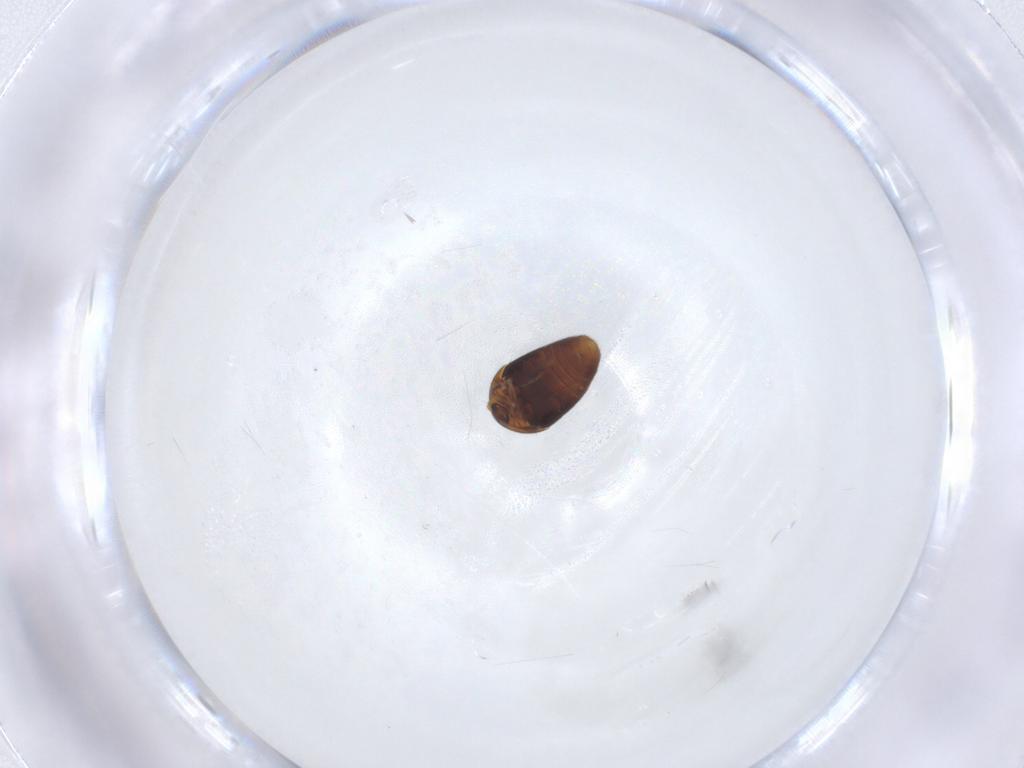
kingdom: Animalia
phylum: Arthropoda
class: Insecta
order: Coleoptera
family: Corylophidae
